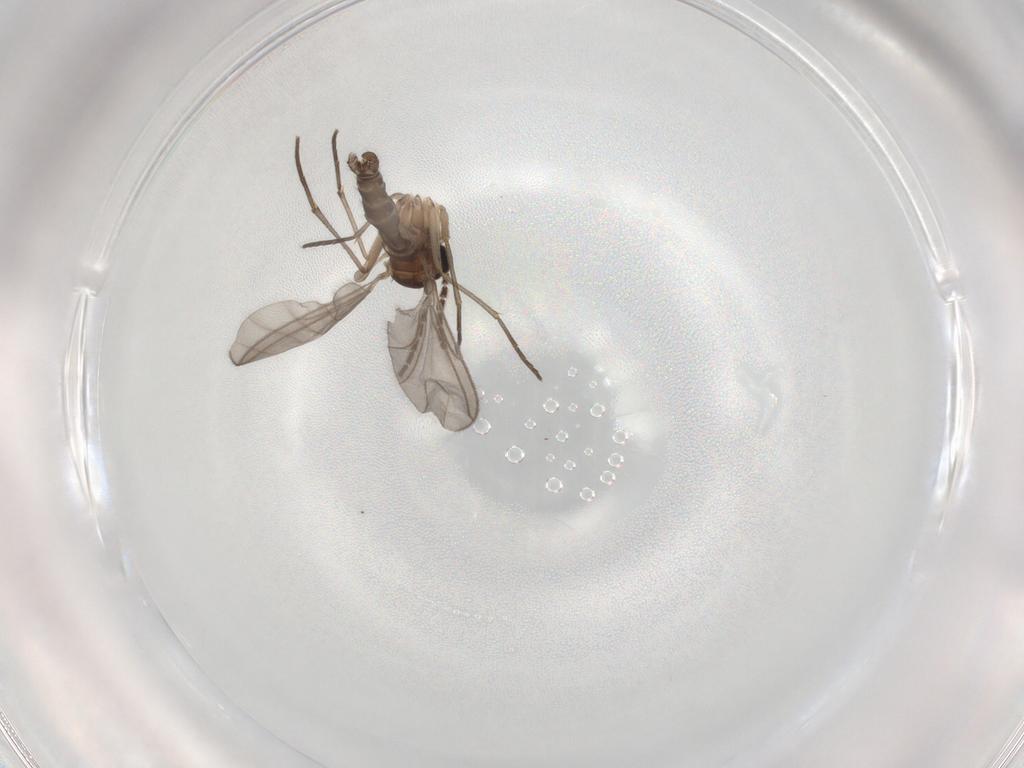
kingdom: Animalia
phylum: Arthropoda
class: Insecta
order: Diptera
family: Sciaridae
